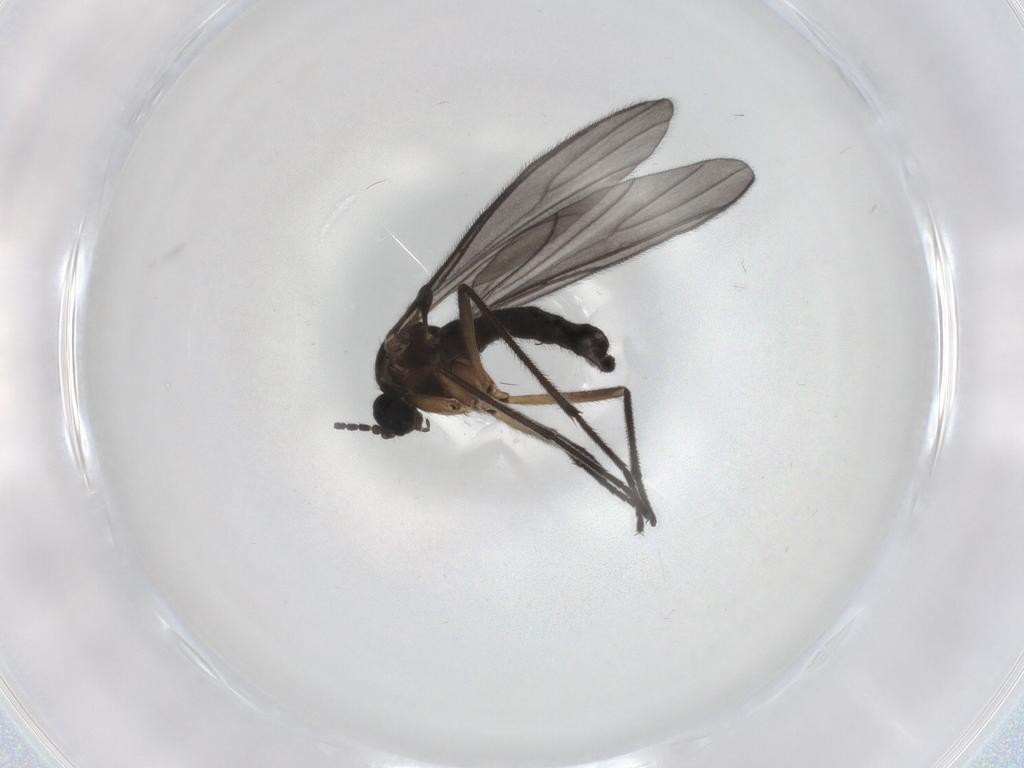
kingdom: Animalia
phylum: Arthropoda
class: Insecta
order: Diptera
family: Sciaridae
